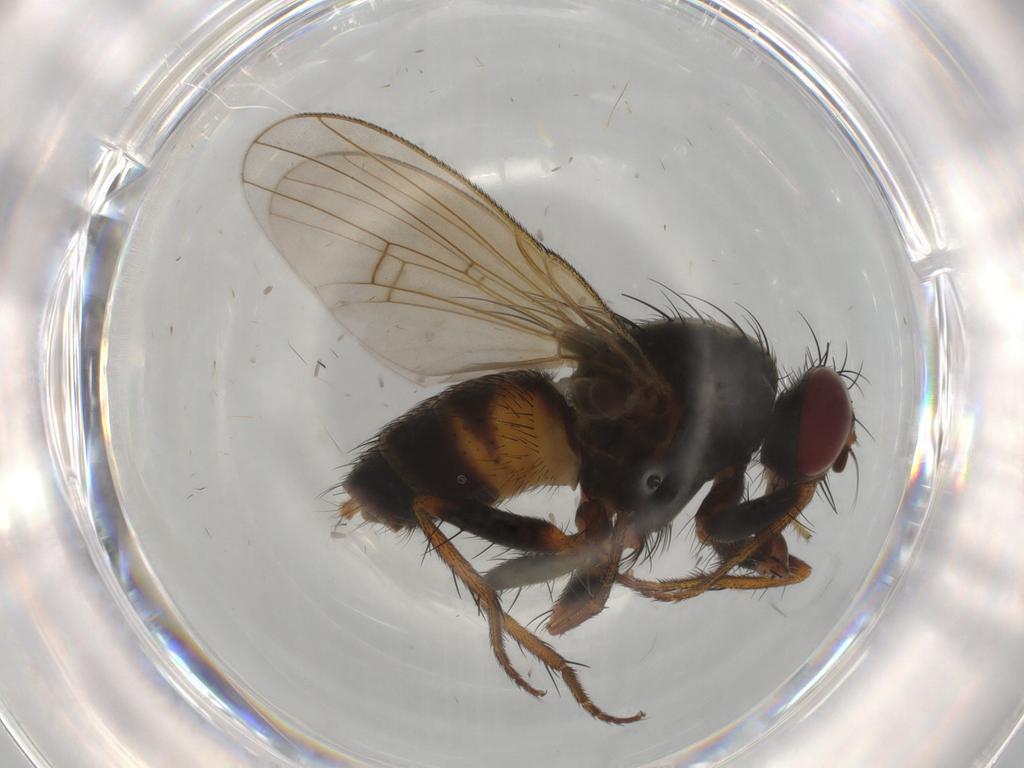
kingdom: Animalia
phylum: Arthropoda
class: Insecta
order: Diptera
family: Muscidae
